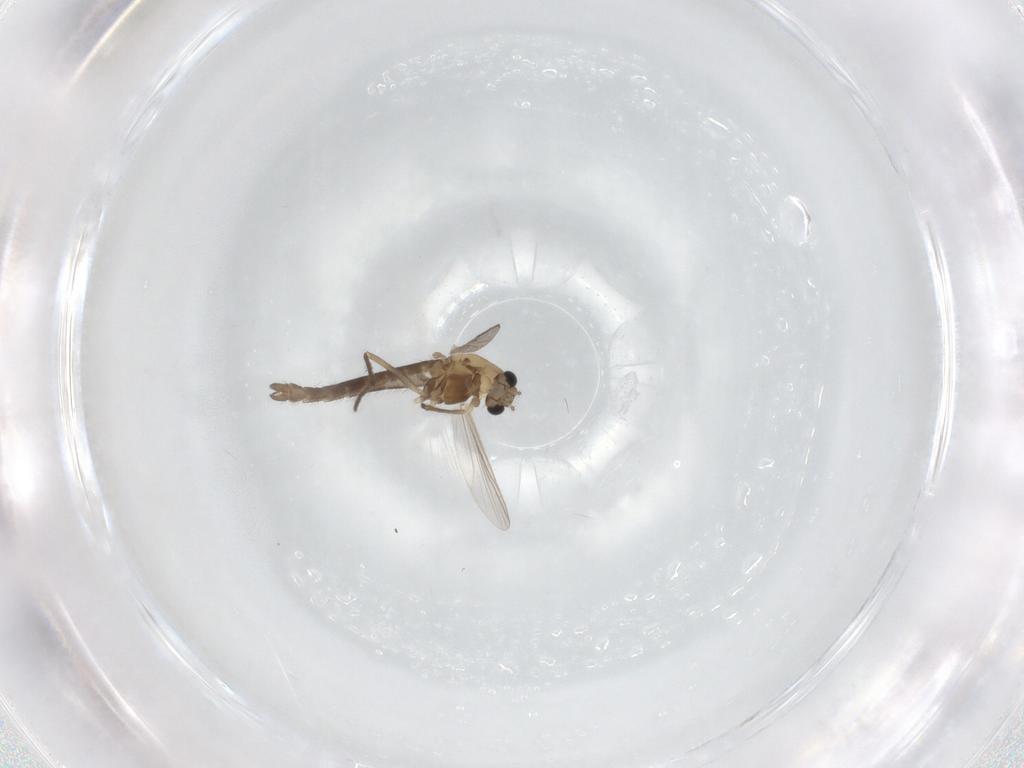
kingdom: Animalia
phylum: Arthropoda
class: Insecta
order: Diptera
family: Chironomidae
